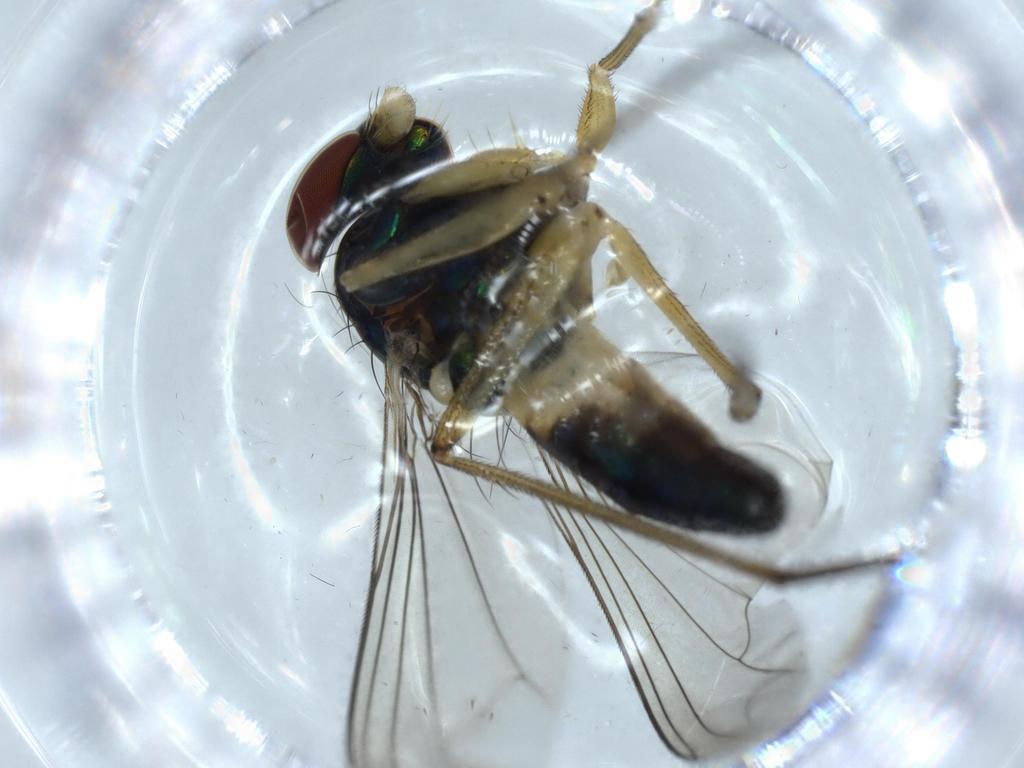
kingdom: Animalia
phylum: Arthropoda
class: Insecta
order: Diptera
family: Dolichopodidae
